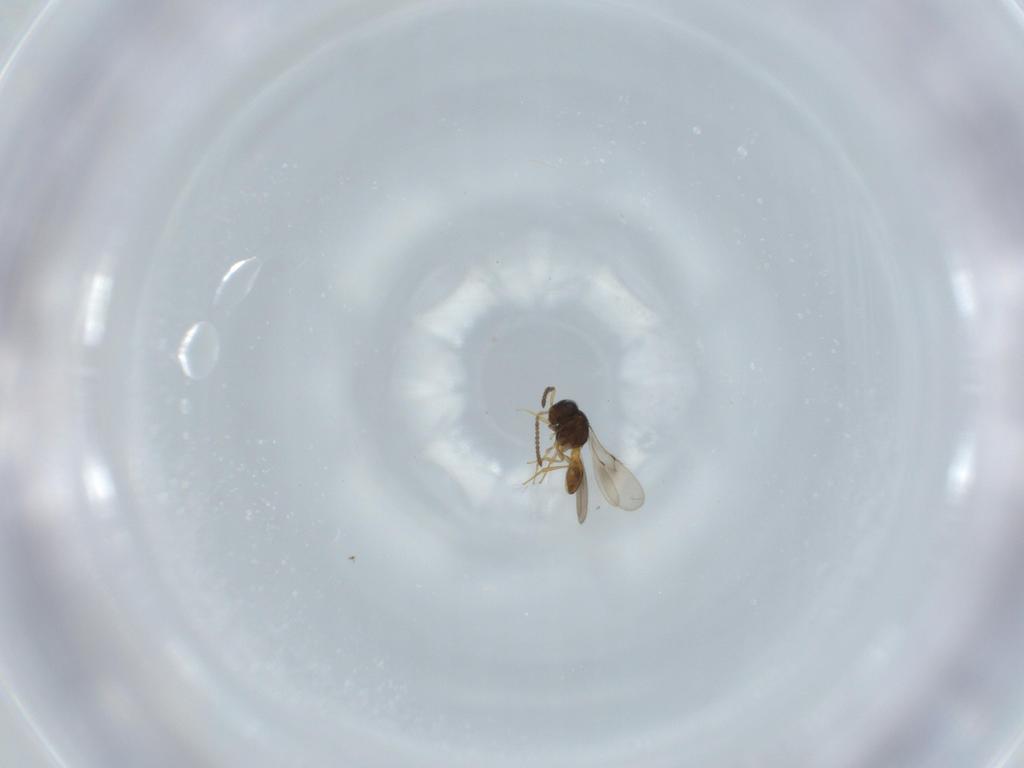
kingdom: Animalia
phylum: Arthropoda
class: Insecta
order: Hymenoptera
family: Scelionidae
